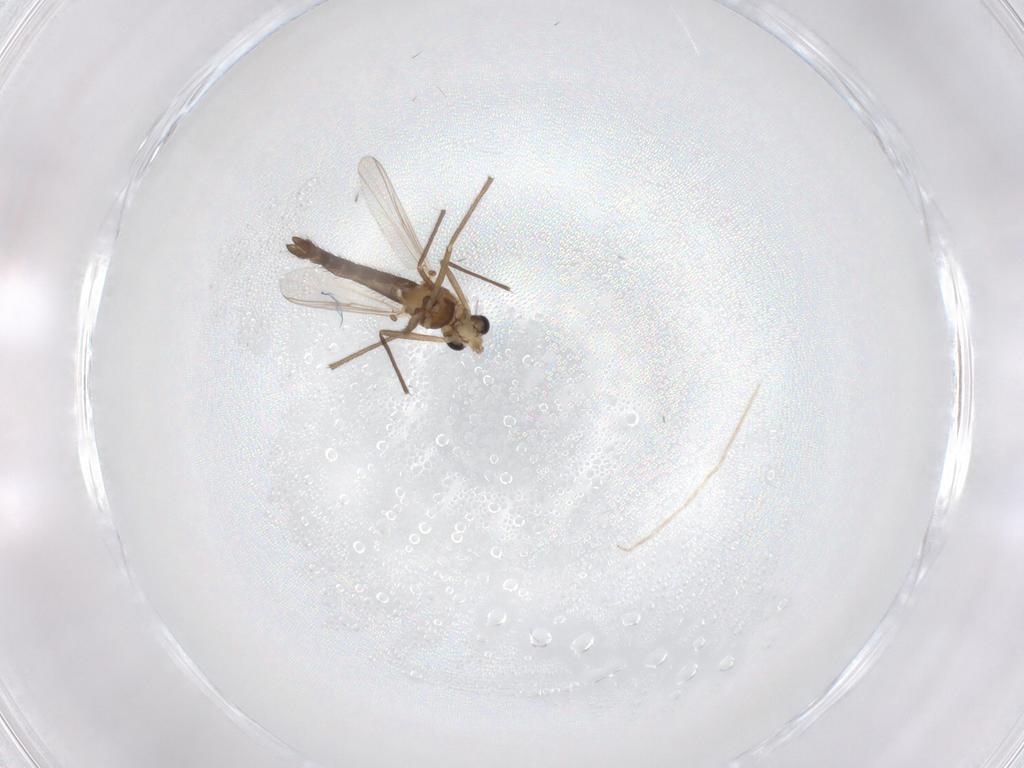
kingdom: Animalia
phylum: Arthropoda
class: Insecta
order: Diptera
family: Chironomidae
